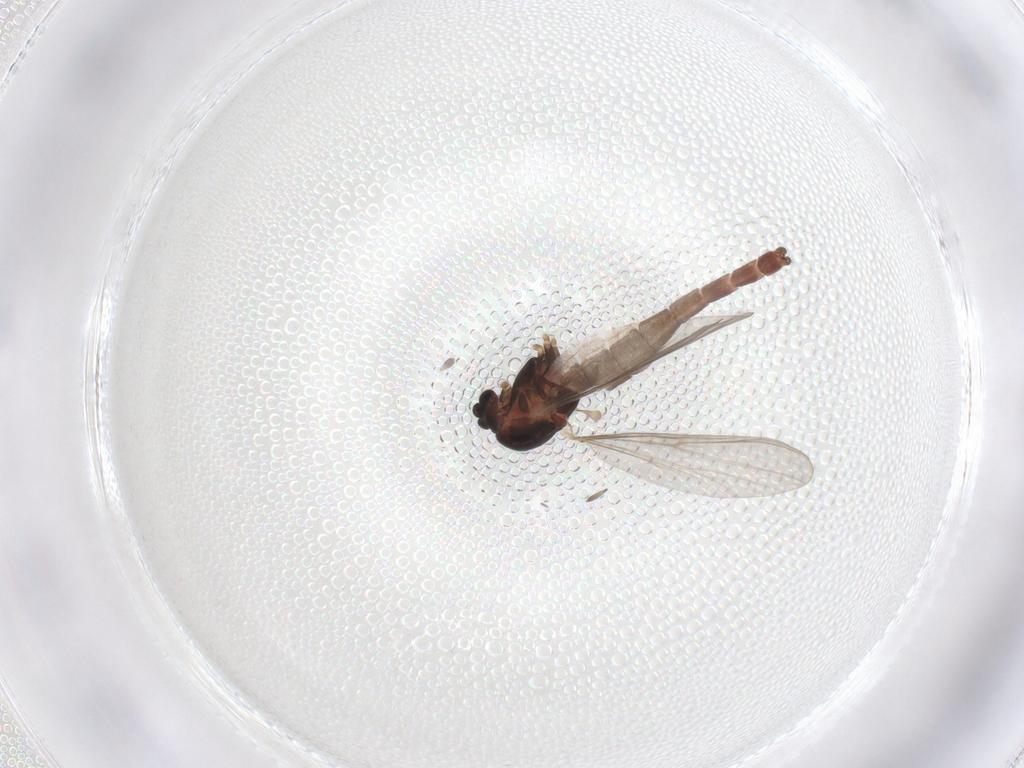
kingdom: Animalia
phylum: Arthropoda
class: Insecta
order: Diptera
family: Chironomidae
